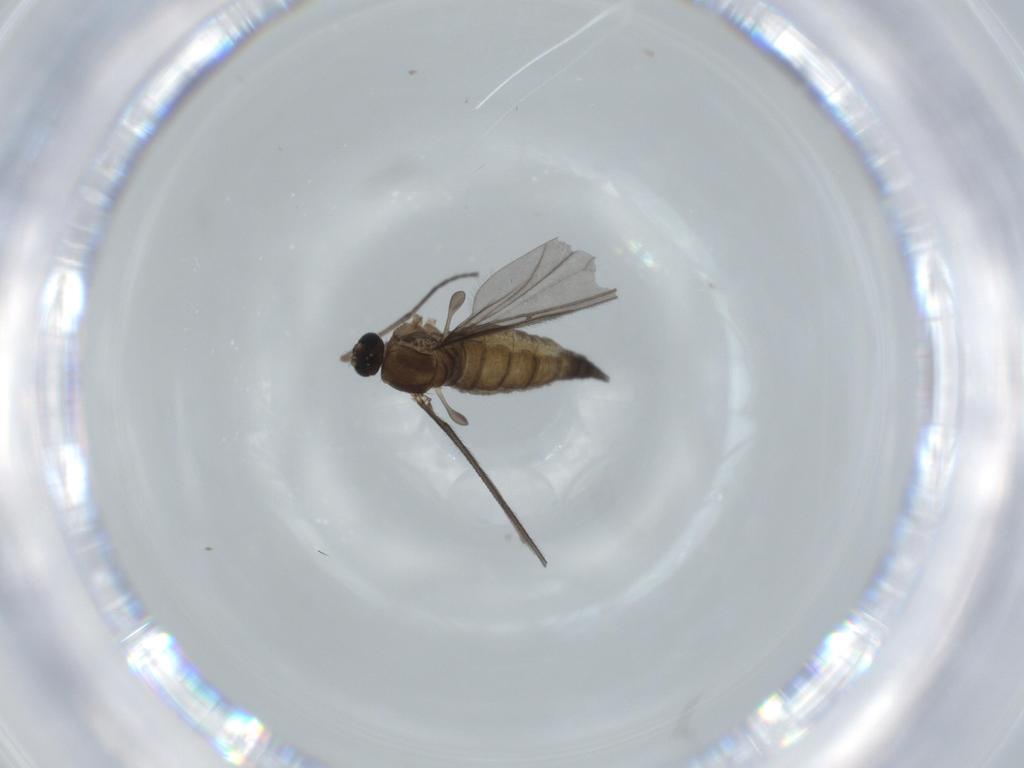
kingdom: Animalia
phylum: Arthropoda
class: Insecta
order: Diptera
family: Sciaridae
